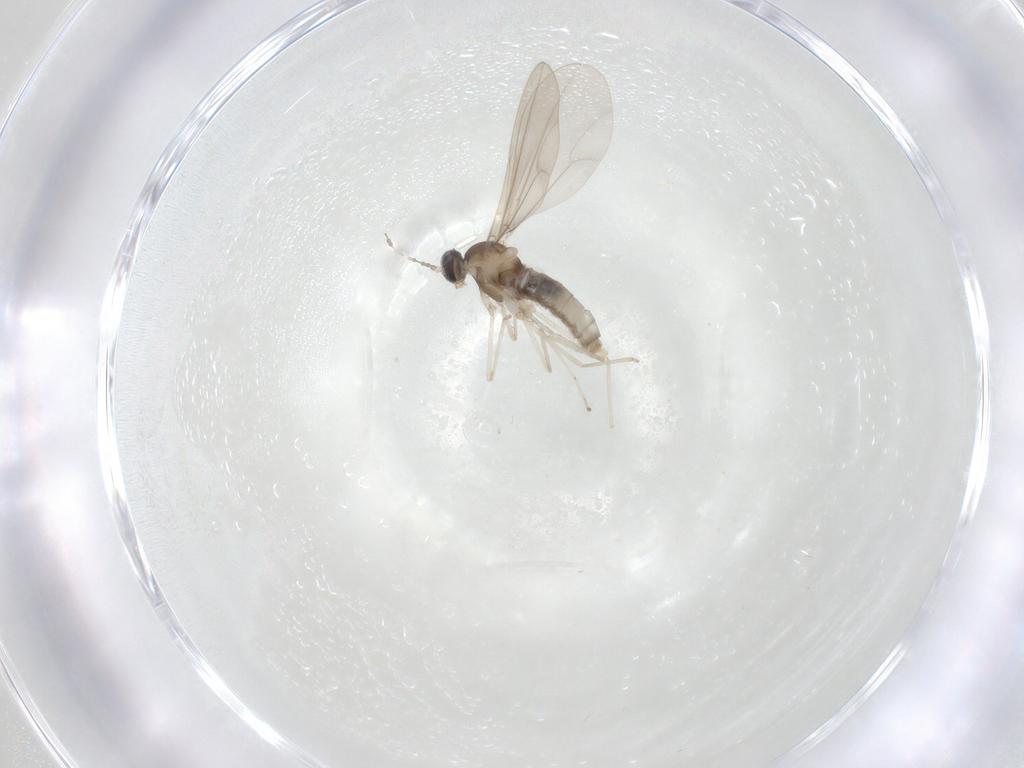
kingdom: Animalia
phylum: Arthropoda
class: Insecta
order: Diptera
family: Cecidomyiidae
